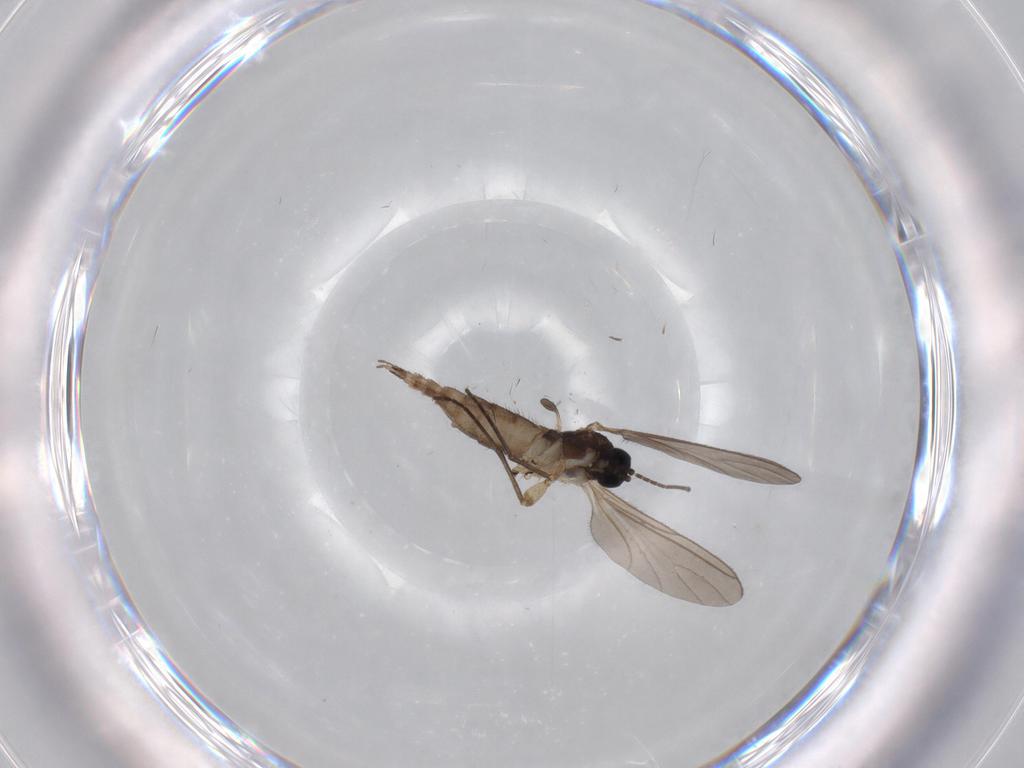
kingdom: Animalia
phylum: Arthropoda
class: Insecta
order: Diptera
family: Sciaridae
